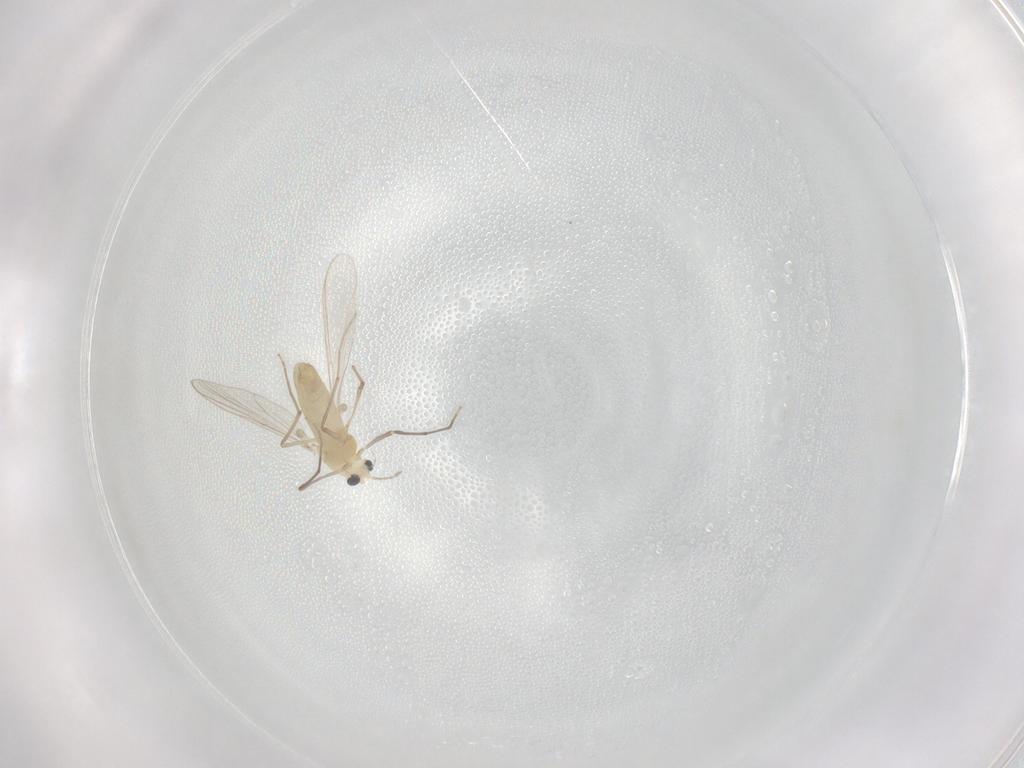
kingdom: Animalia
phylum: Arthropoda
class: Insecta
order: Diptera
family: Chironomidae
